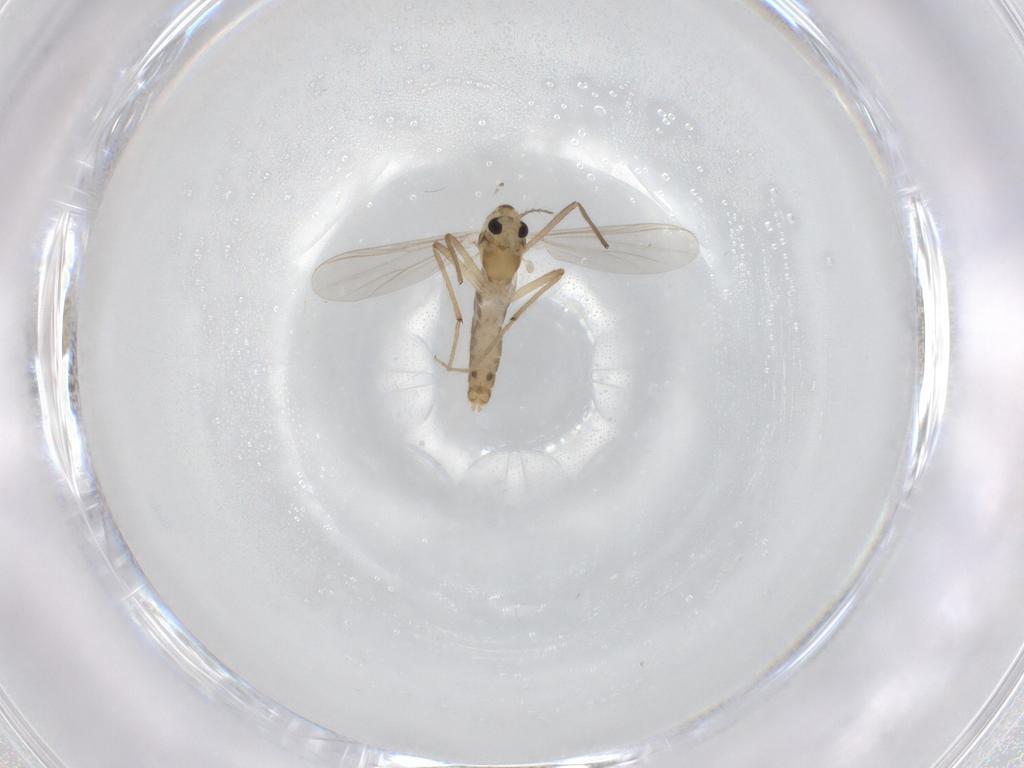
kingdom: Animalia
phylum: Arthropoda
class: Insecta
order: Diptera
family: Chironomidae
